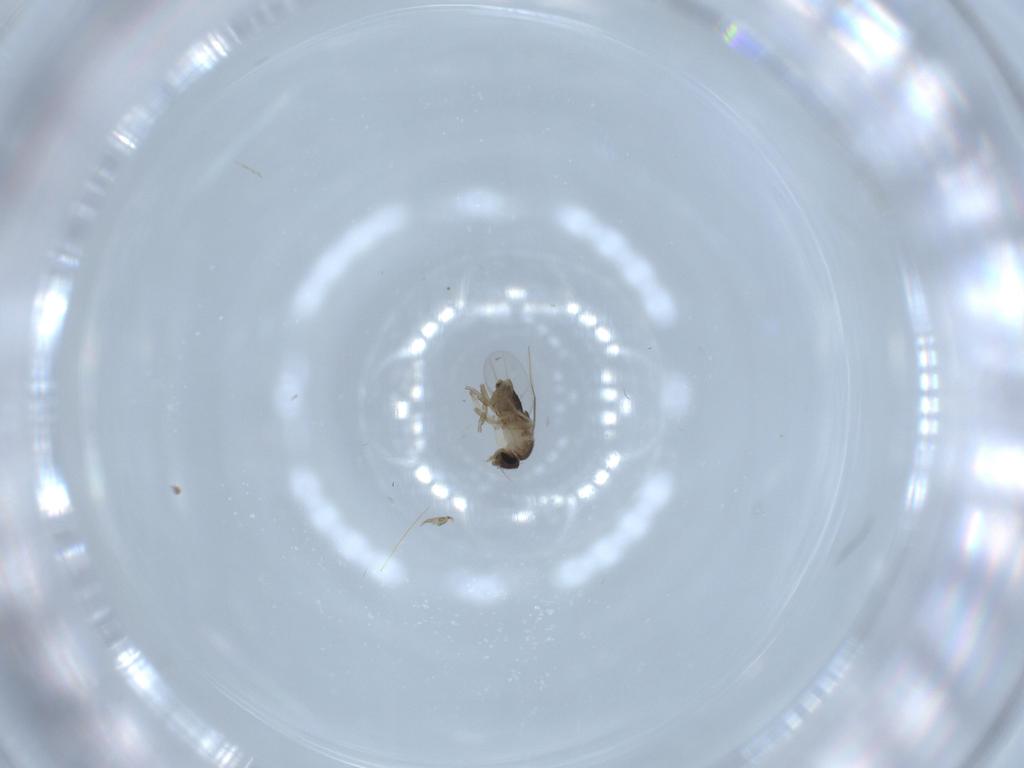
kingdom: Animalia
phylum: Arthropoda
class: Insecta
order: Diptera
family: Phoridae
